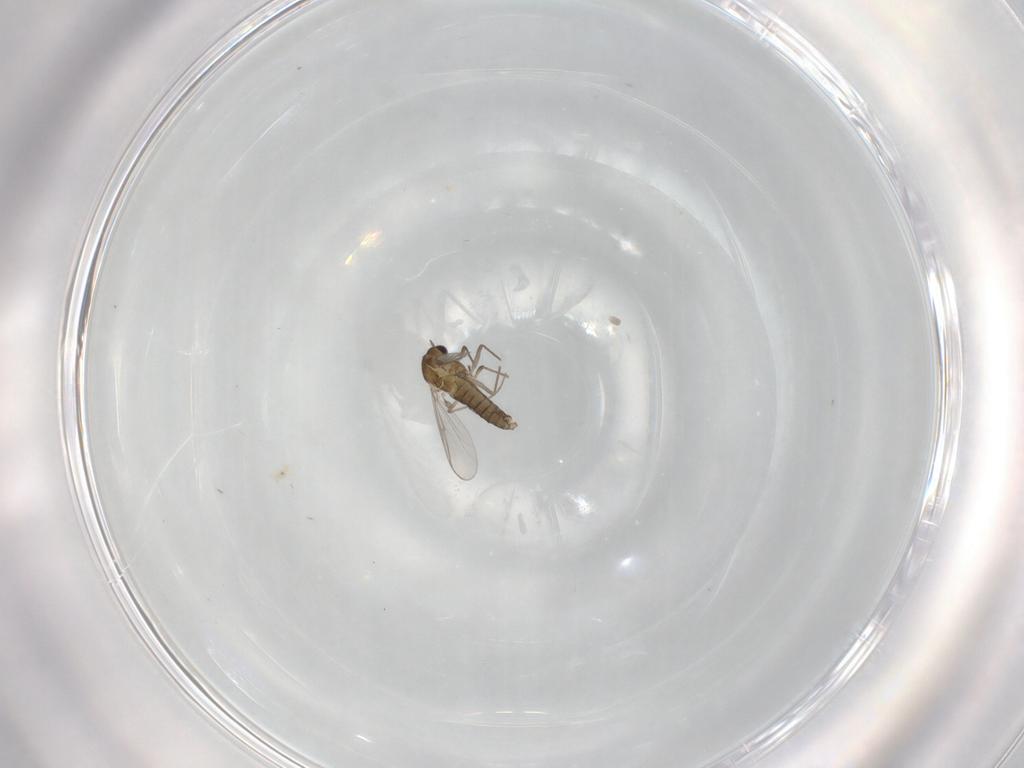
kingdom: Animalia
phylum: Arthropoda
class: Insecta
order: Diptera
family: Chironomidae
